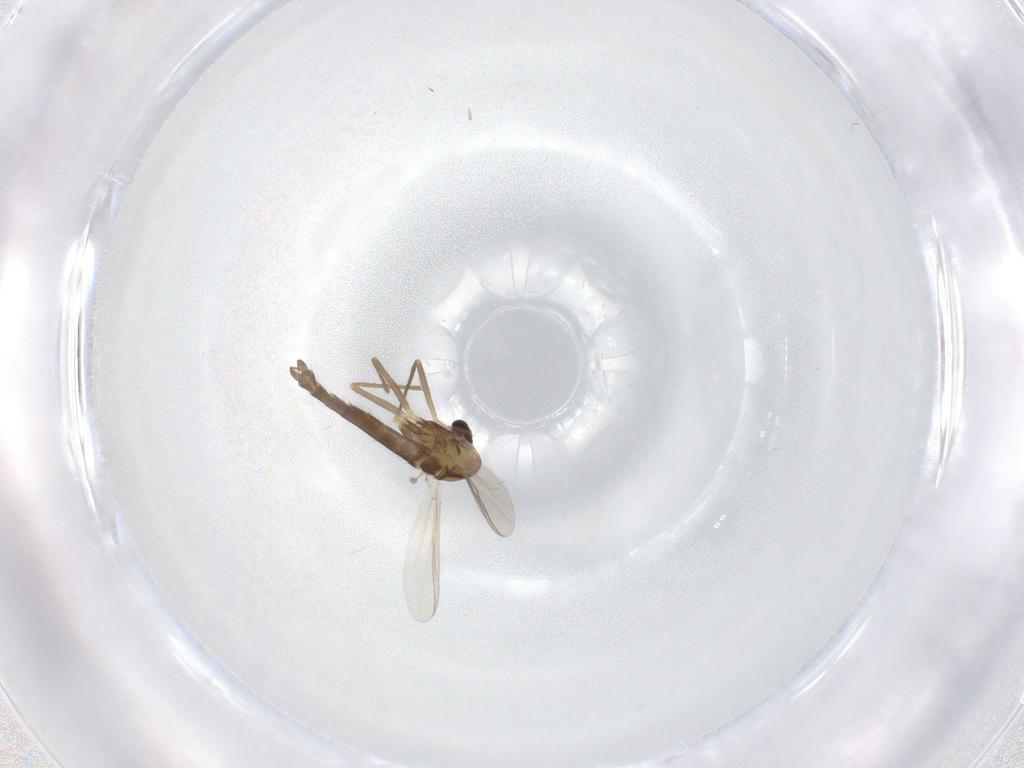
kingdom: Animalia
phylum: Arthropoda
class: Insecta
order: Diptera
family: Chironomidae
